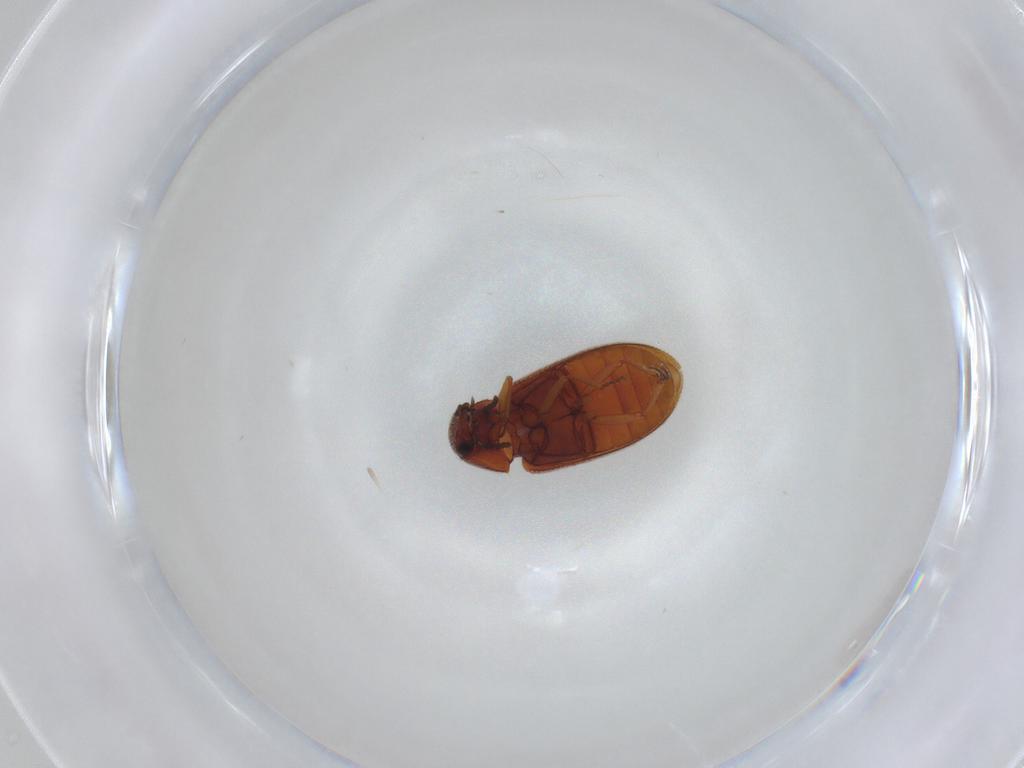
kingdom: Animalia
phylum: Arthropoda
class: Insecta
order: Coleoptera
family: Rhadalidae
